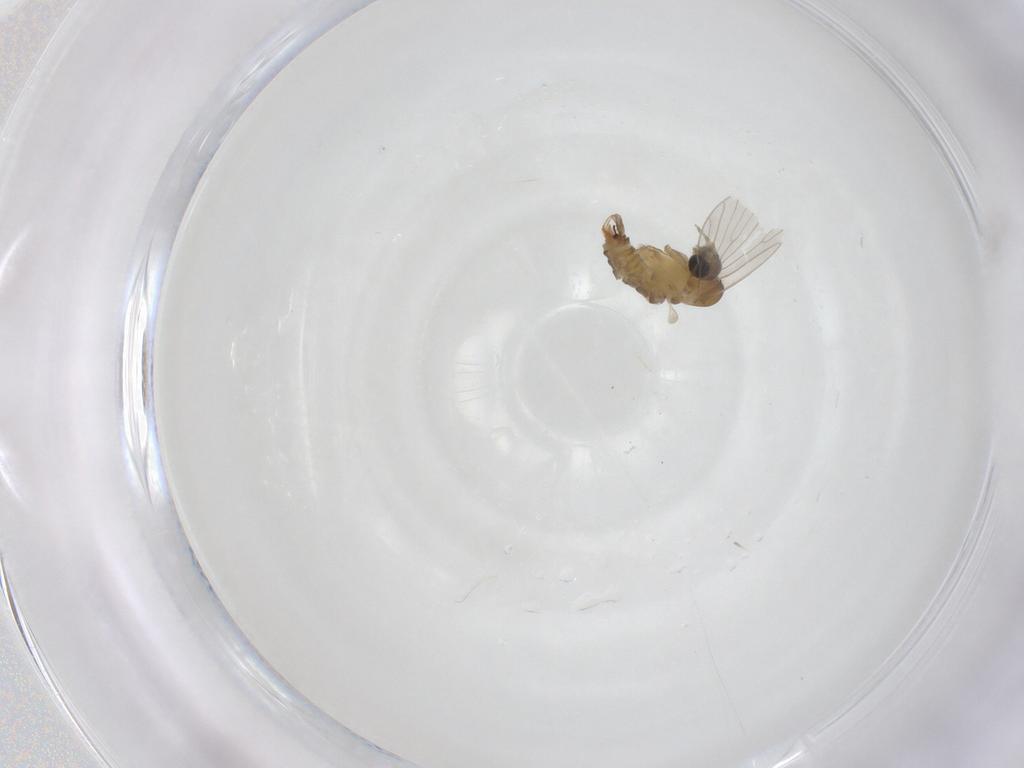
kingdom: Animalia
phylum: Arthropoda
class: Insecta
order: Diptera
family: Psychodidae
